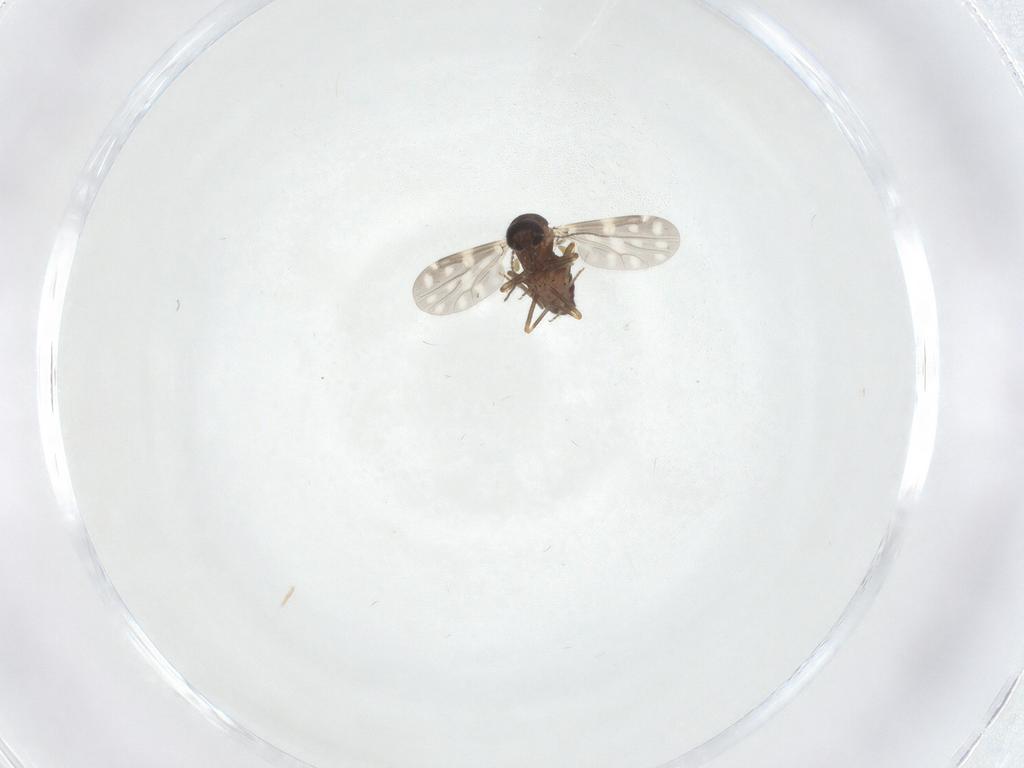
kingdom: Animalia
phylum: Arthropoda
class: Insecta
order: Diptera
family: Ceratopogonidae
